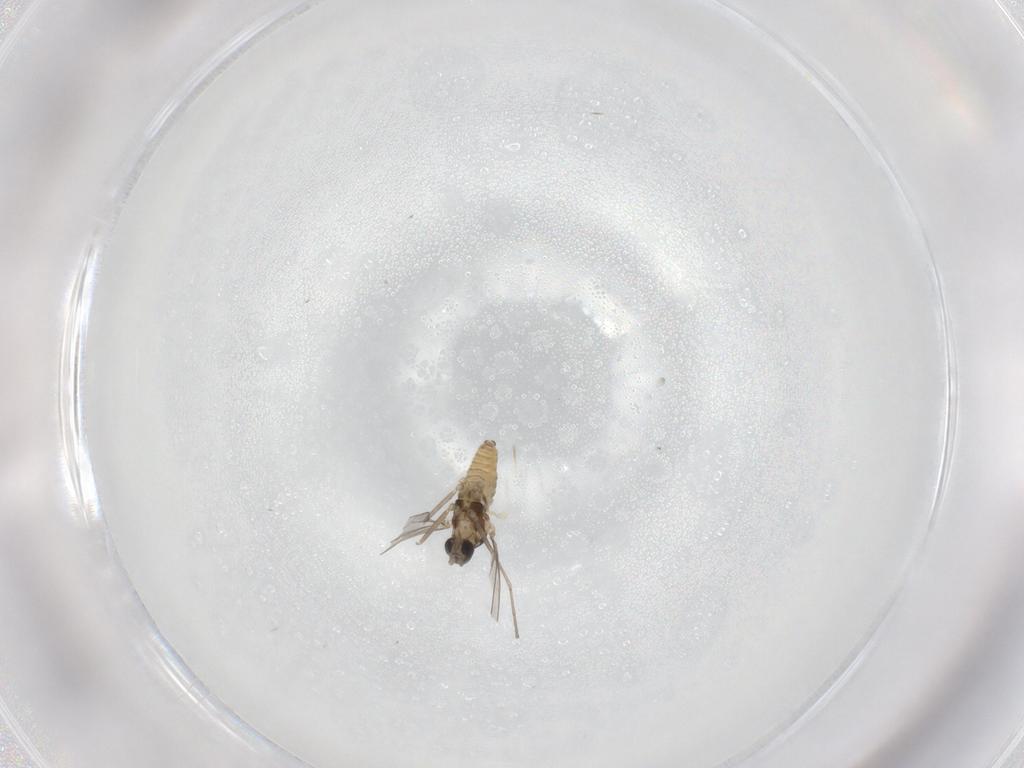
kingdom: Animalia
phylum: Arthropoda
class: Insecta
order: Diptera
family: Cecidomyiidae
